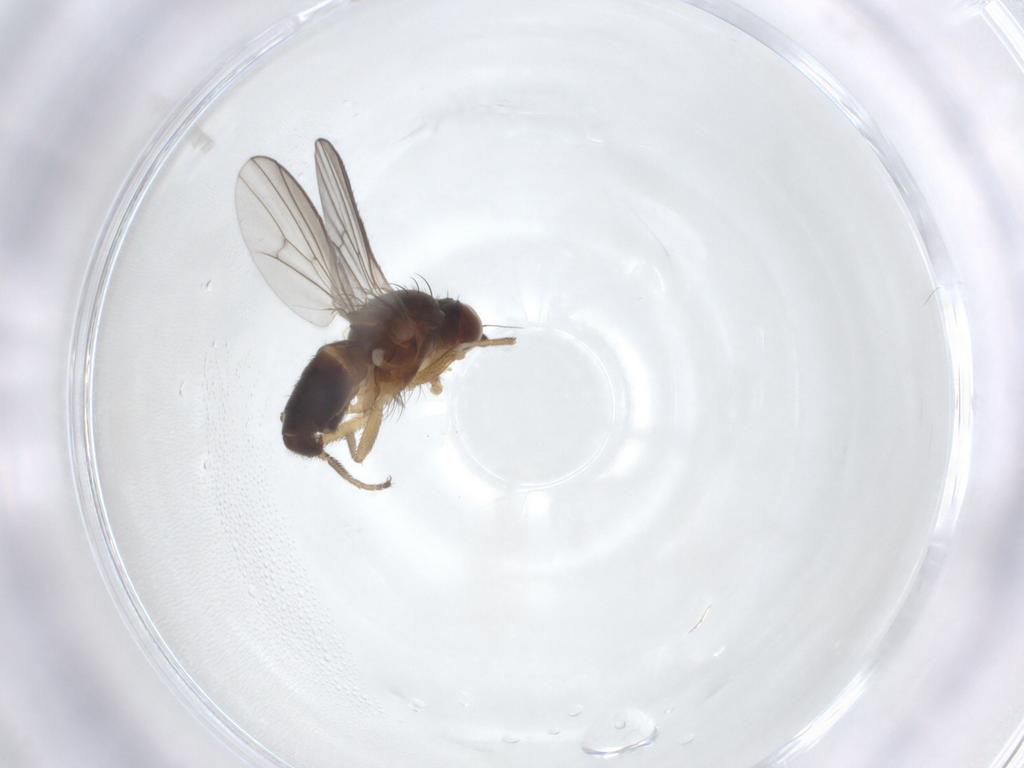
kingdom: Animalia
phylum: Arthropoda
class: Insecta
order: Diptera
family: Heleomyzidae
